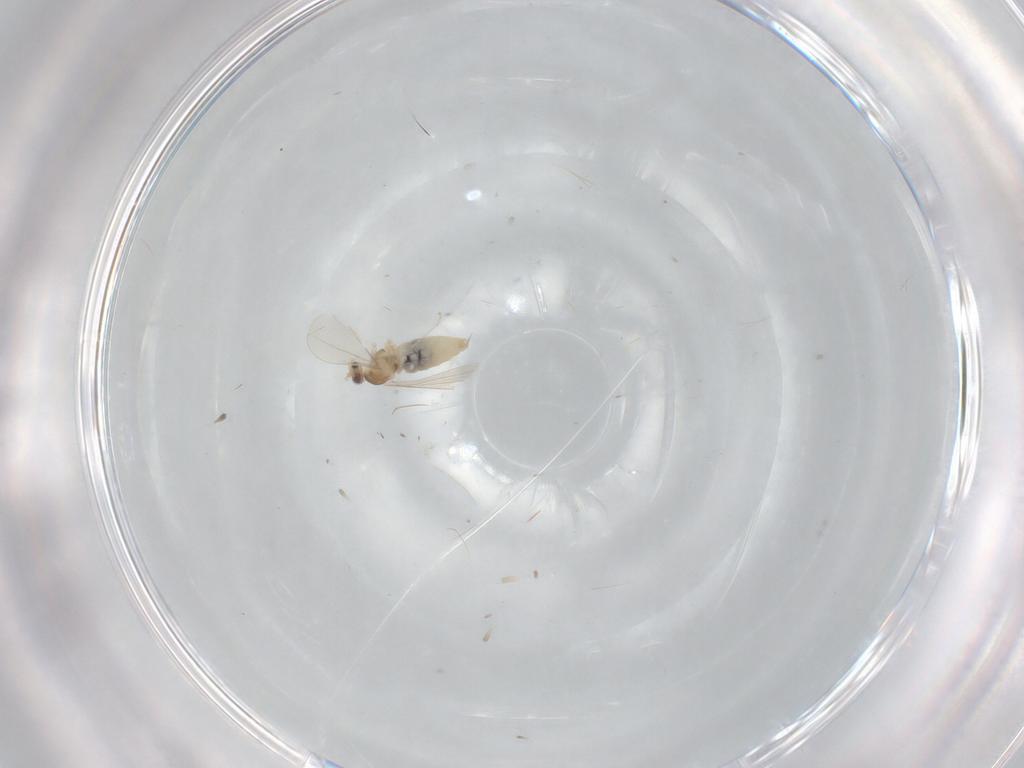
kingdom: Animalia
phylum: Arthropoda
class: Insecta
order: Diptera
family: Cecidomyiidae
